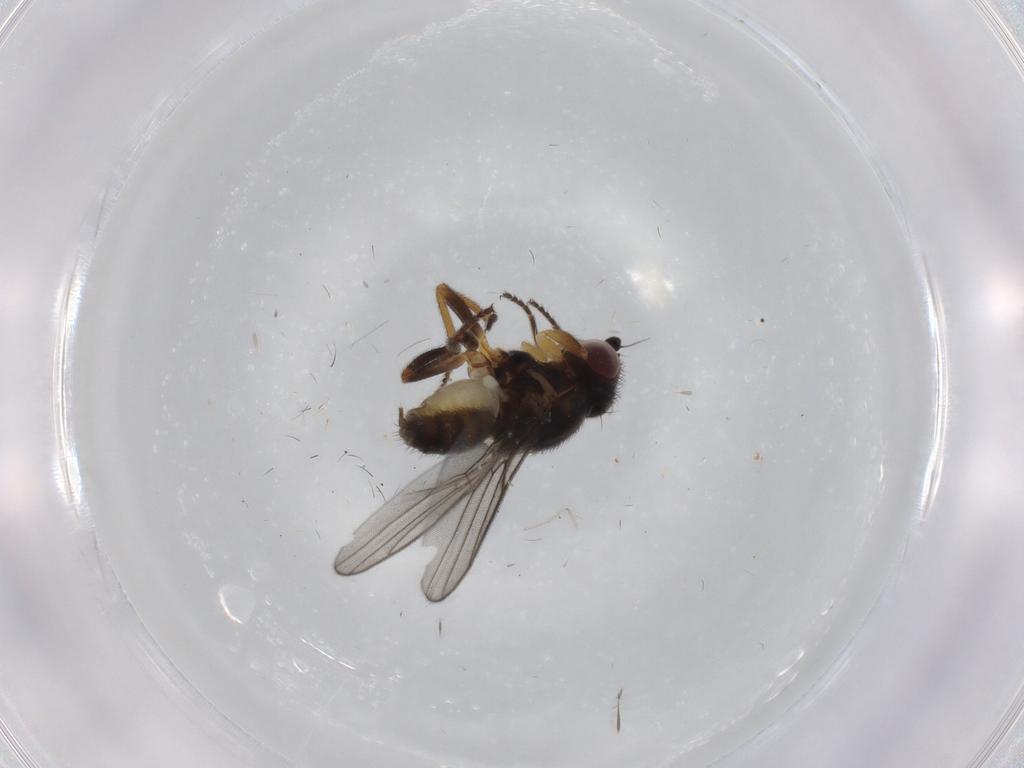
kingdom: Animalia
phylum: Arthropoda
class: Insecta
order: Diptera
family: Chloropidae
